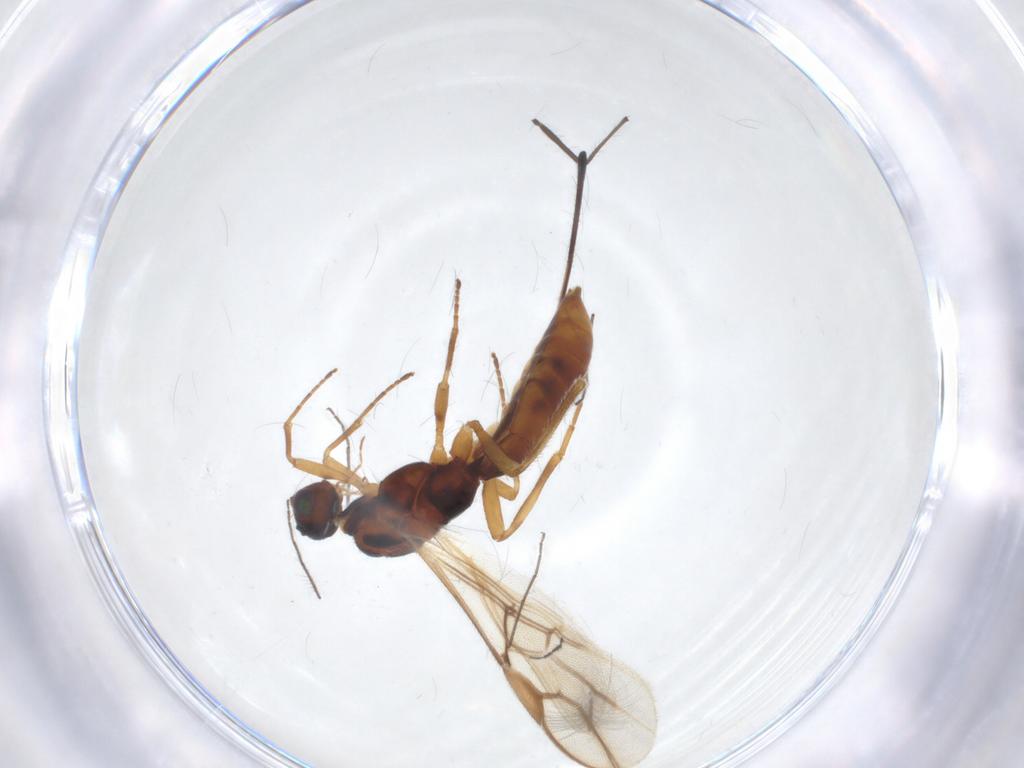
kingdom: Animalia
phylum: Arthropoda
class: Insecta
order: Hymenoptera
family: Braconidae
